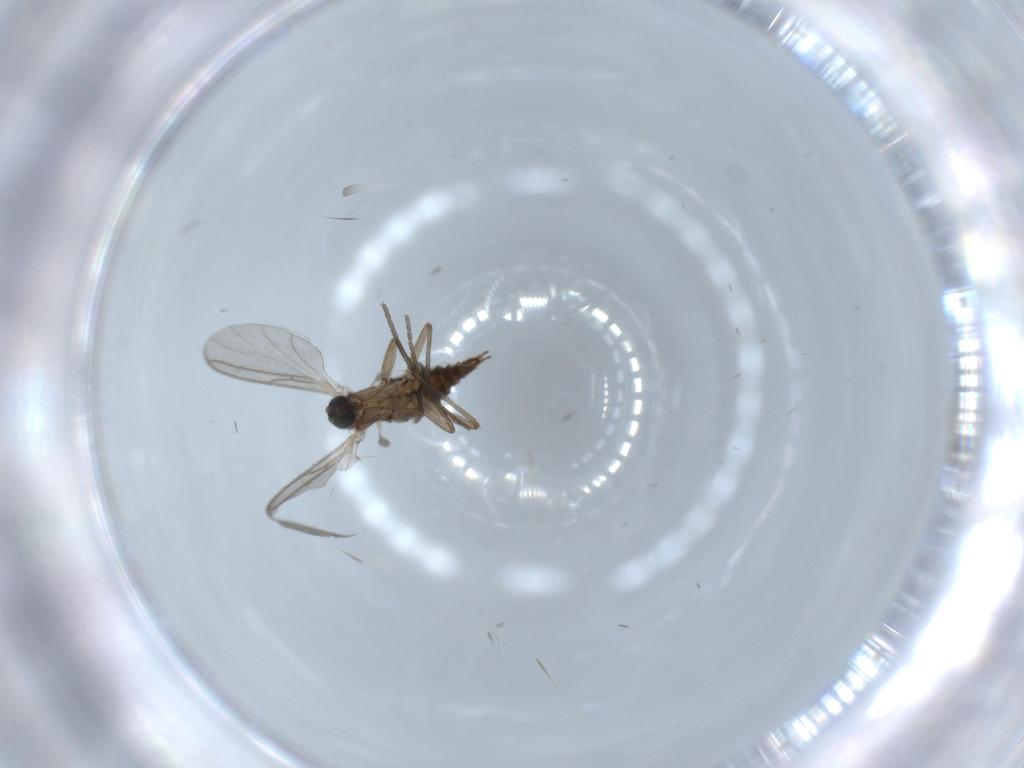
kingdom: Animalia
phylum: Arthropoda
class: Insecta
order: Diptera
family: Sciaridae
